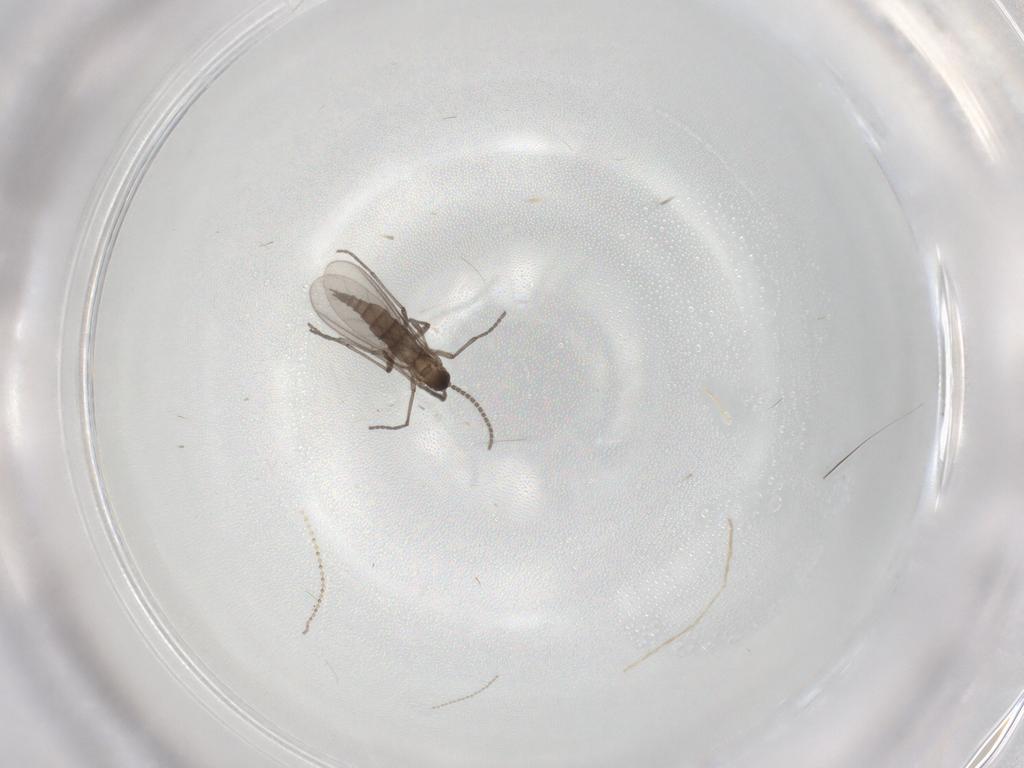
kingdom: Animalia
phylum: Arthropoda
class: Insecta
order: Diptera
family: Sciaridae
